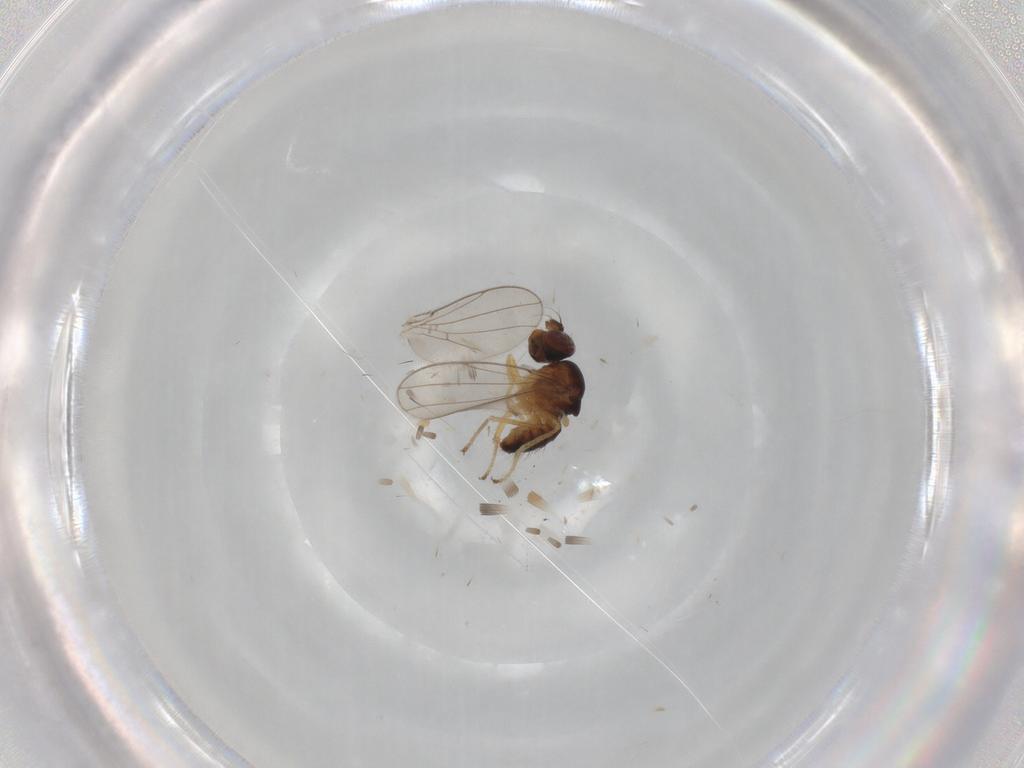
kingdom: Animalia
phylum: Arthropoda
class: Insecta
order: Diptera
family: Ephydridae
